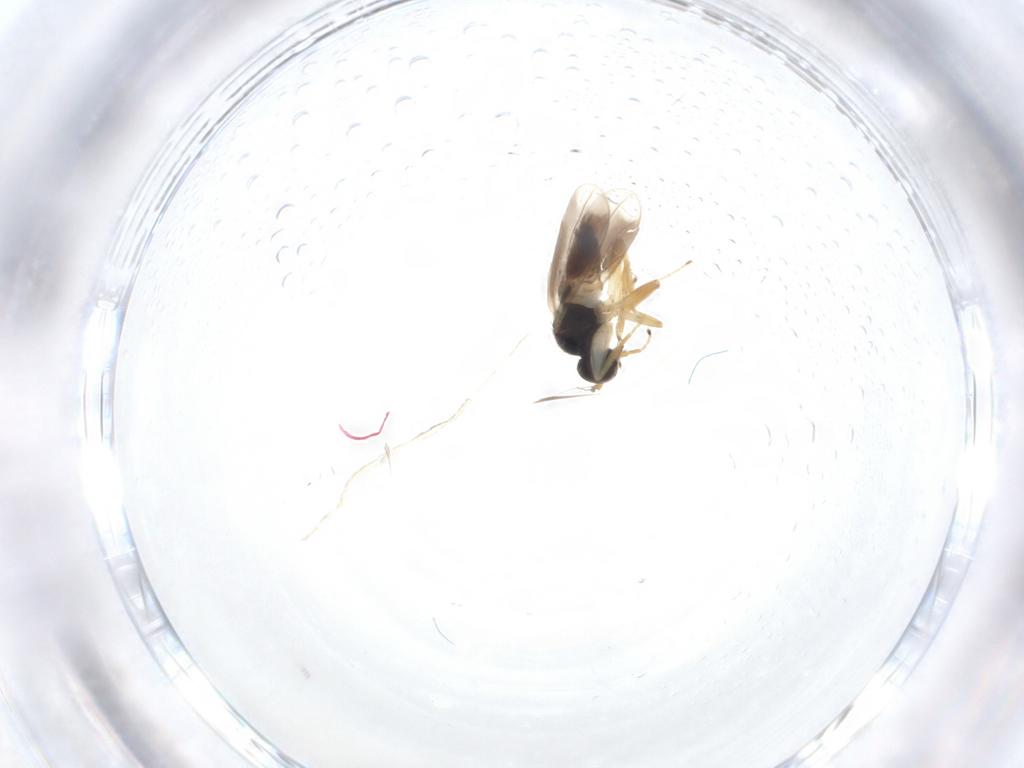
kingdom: Animalia
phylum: Arthropoda
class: Insecta
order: Diptera
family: Hybotidae
